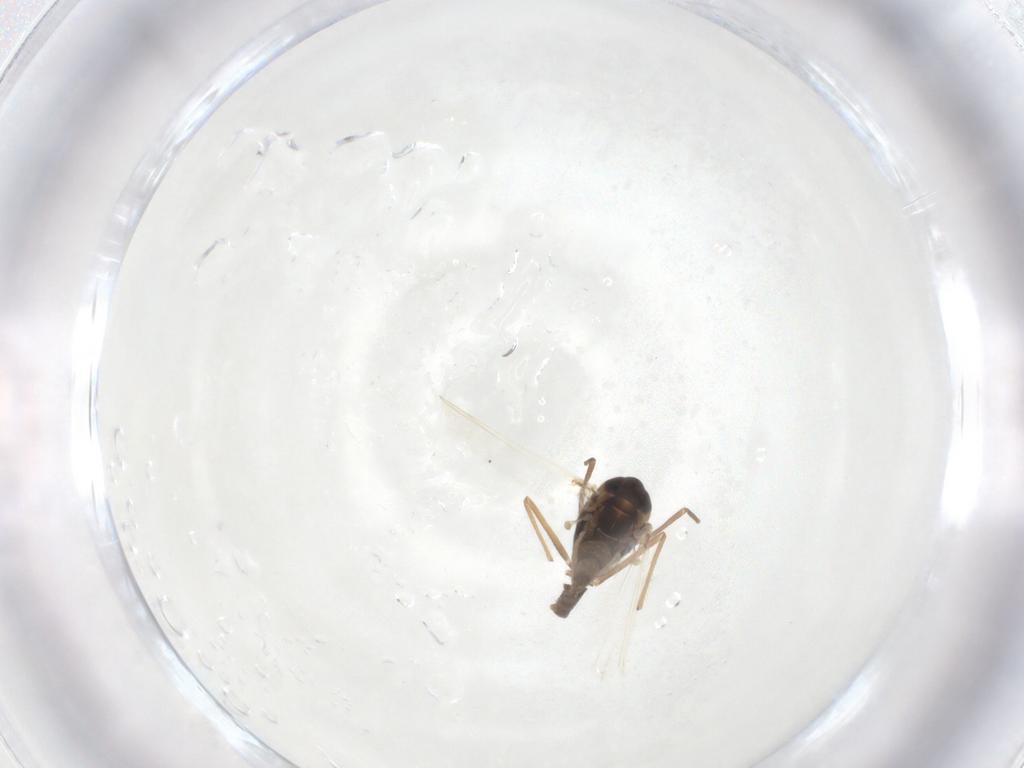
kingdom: Animalia
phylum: Arthropoda
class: Insecta
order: Diptera
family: Chironomidae
